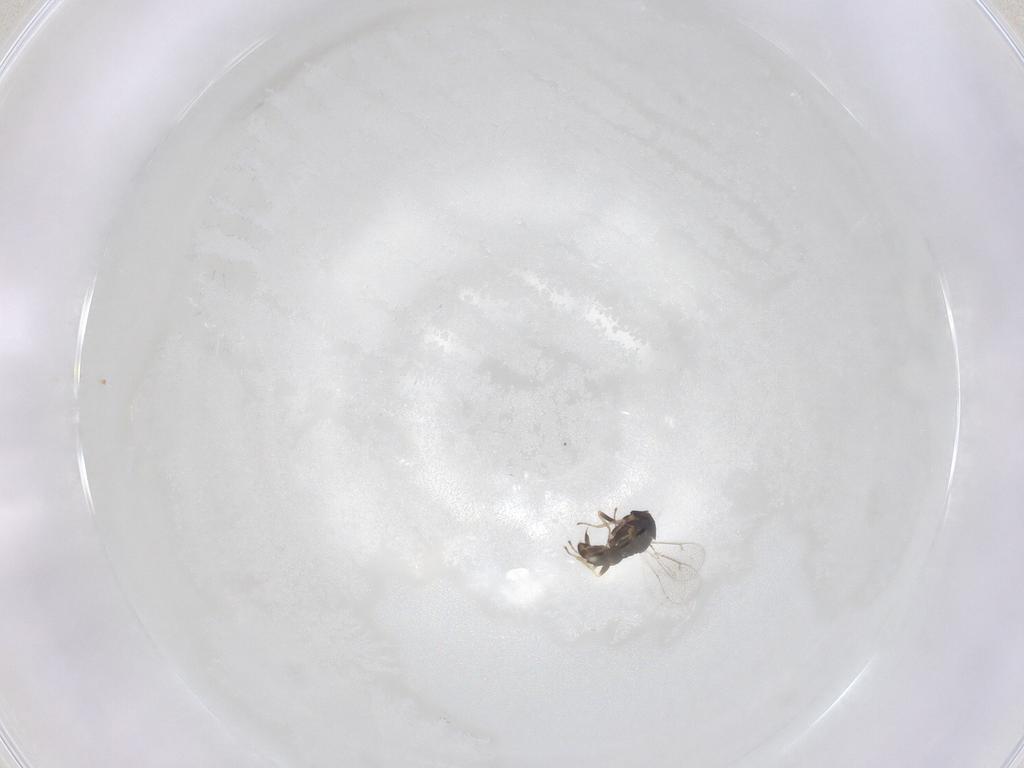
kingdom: Animalia
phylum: Arthropoda
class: Insecta
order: Hymenoptera
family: Eulophidae
